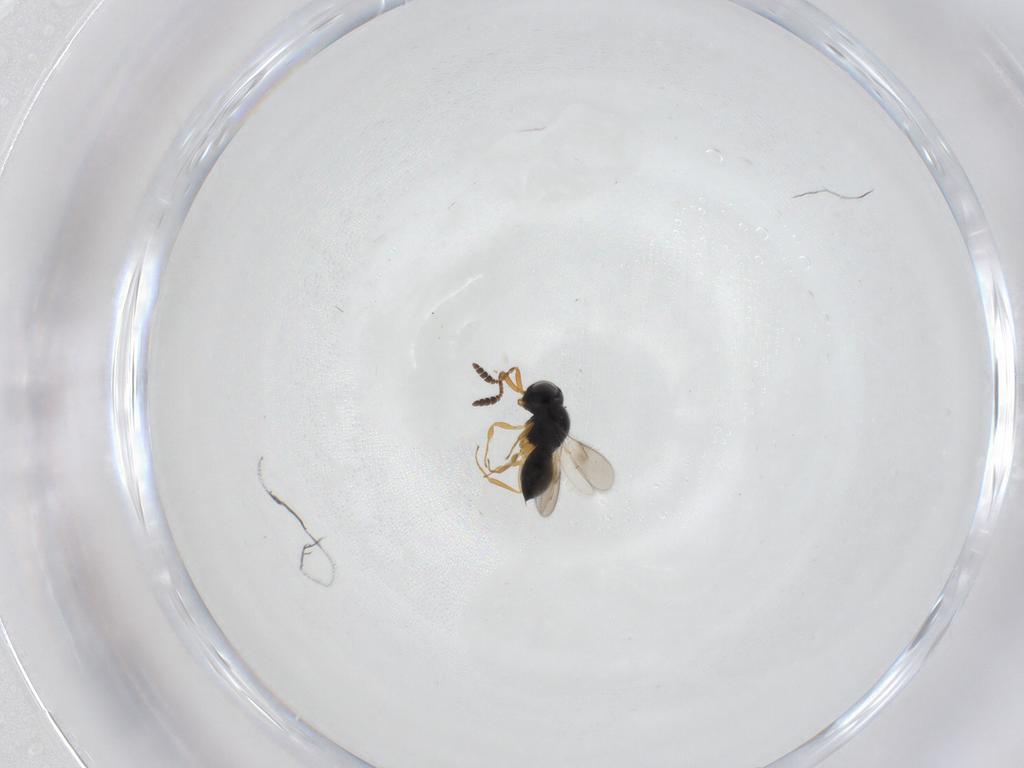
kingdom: Animalia
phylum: Arthropoda
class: Insecta
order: Hymenoptera
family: Scelionidae
